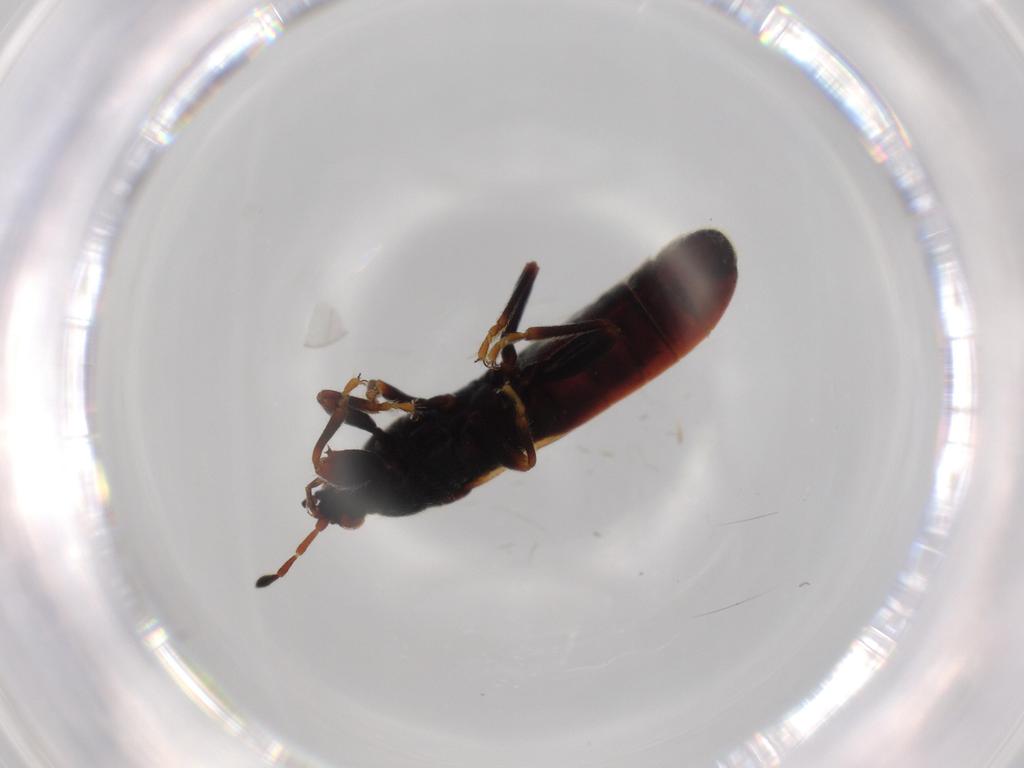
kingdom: Animalia
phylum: Arthropoda
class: Insecta
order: Hemiptera
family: Blissidae
